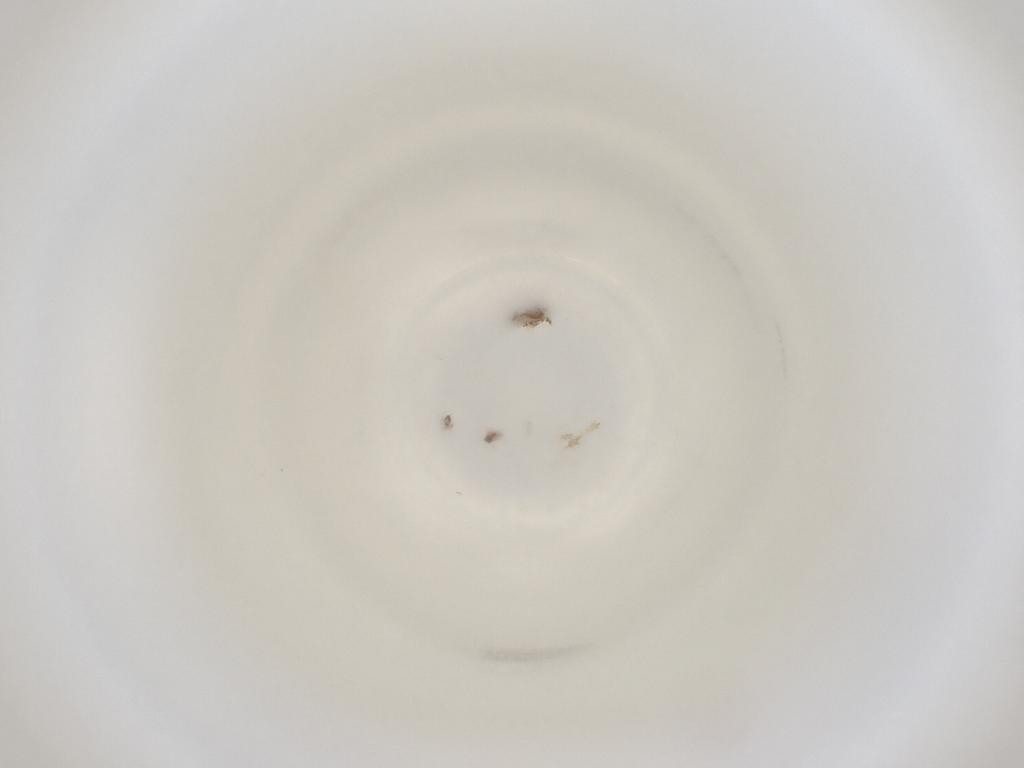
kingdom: Animalia
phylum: Arthropoda
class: Insecta
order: Diptera
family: Cecidomyiidae
